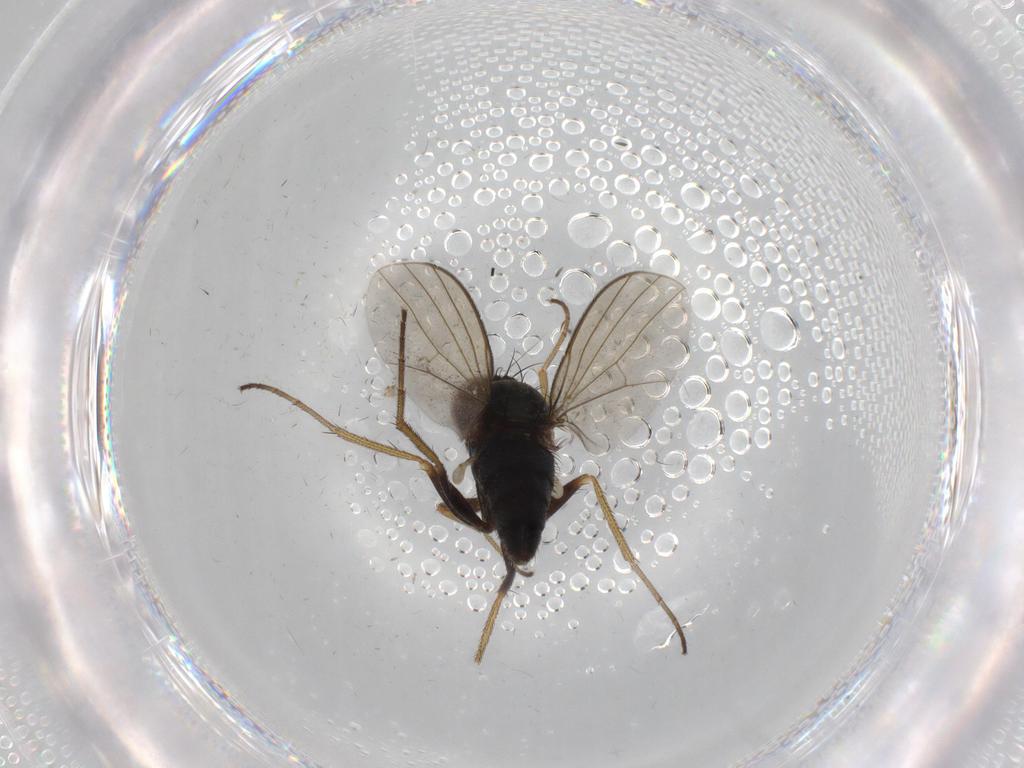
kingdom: Animalia
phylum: Arthropoda
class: Insecta
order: Diptera
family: Dolichopodidae
